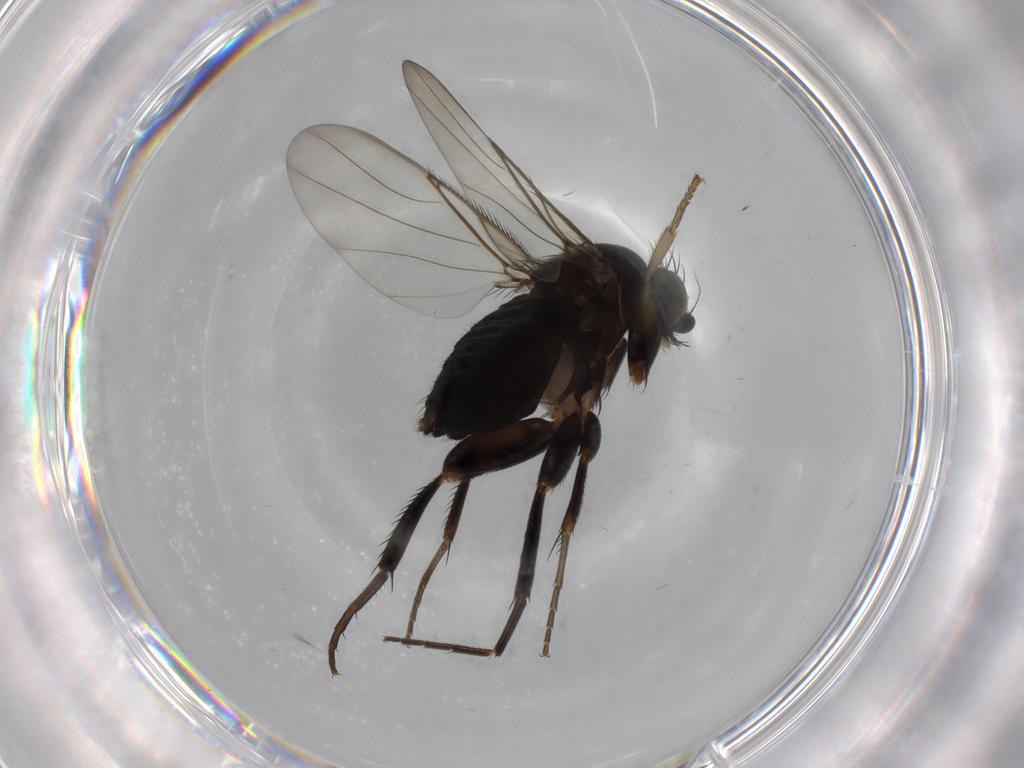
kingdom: Animalia
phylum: Arthropoda
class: Insecta
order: Diptera
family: Phoridae
